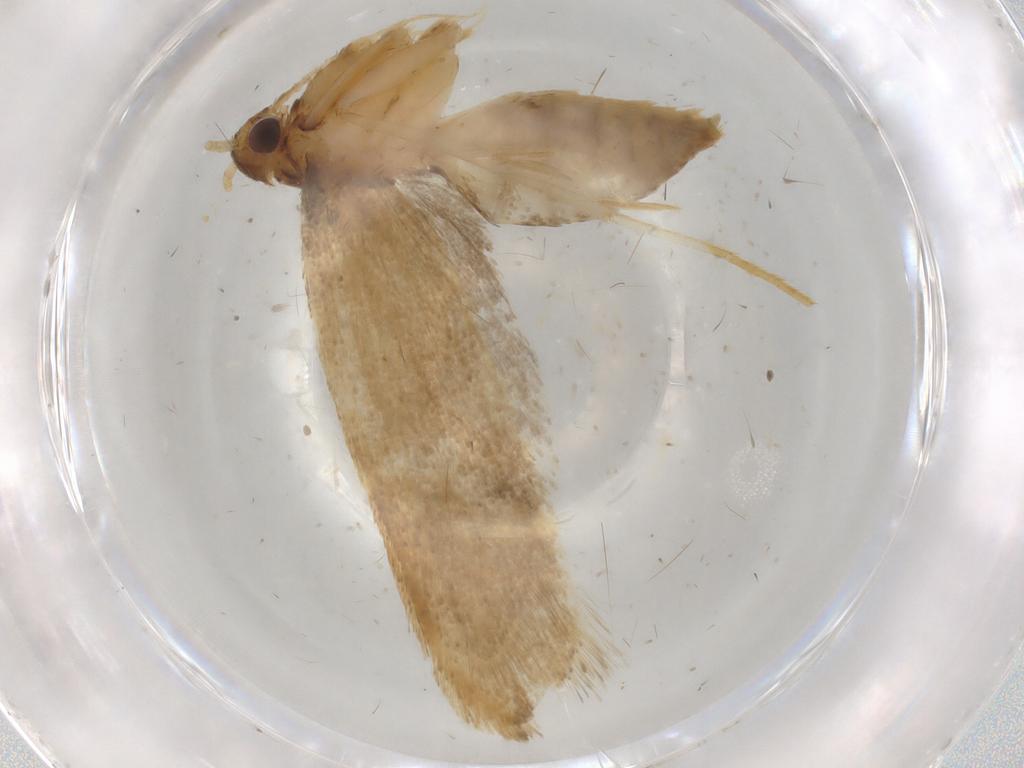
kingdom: Animalia
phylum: Arthropoda
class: Insecta
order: Lepidoptera
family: Lecithoceridae
